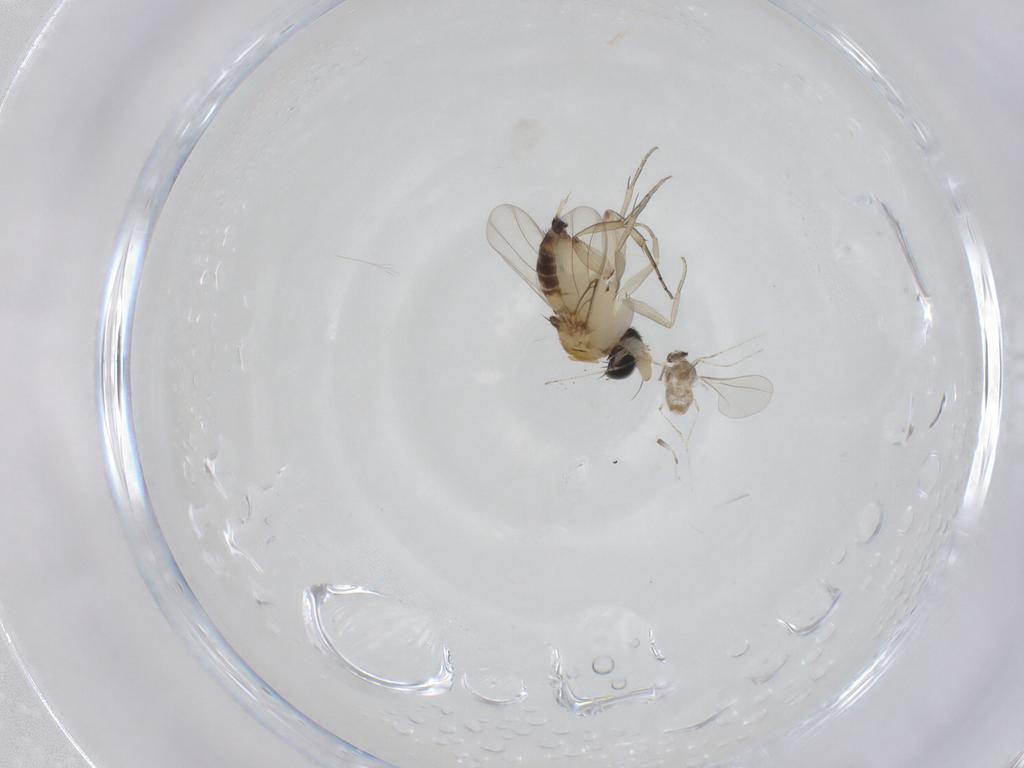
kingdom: Animalia
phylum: Arthropoda
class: Insecta
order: Diptera
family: Phoridae
